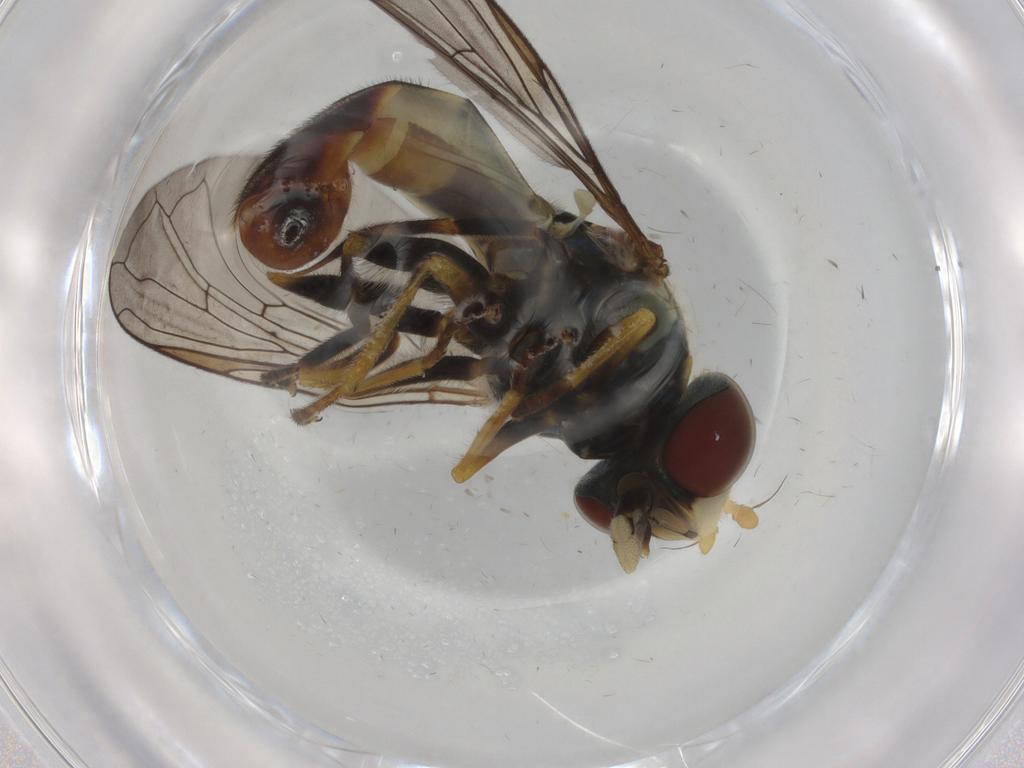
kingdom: Animalia
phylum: Arthropoda
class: Insecta
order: Diptera
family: Syrphidae
